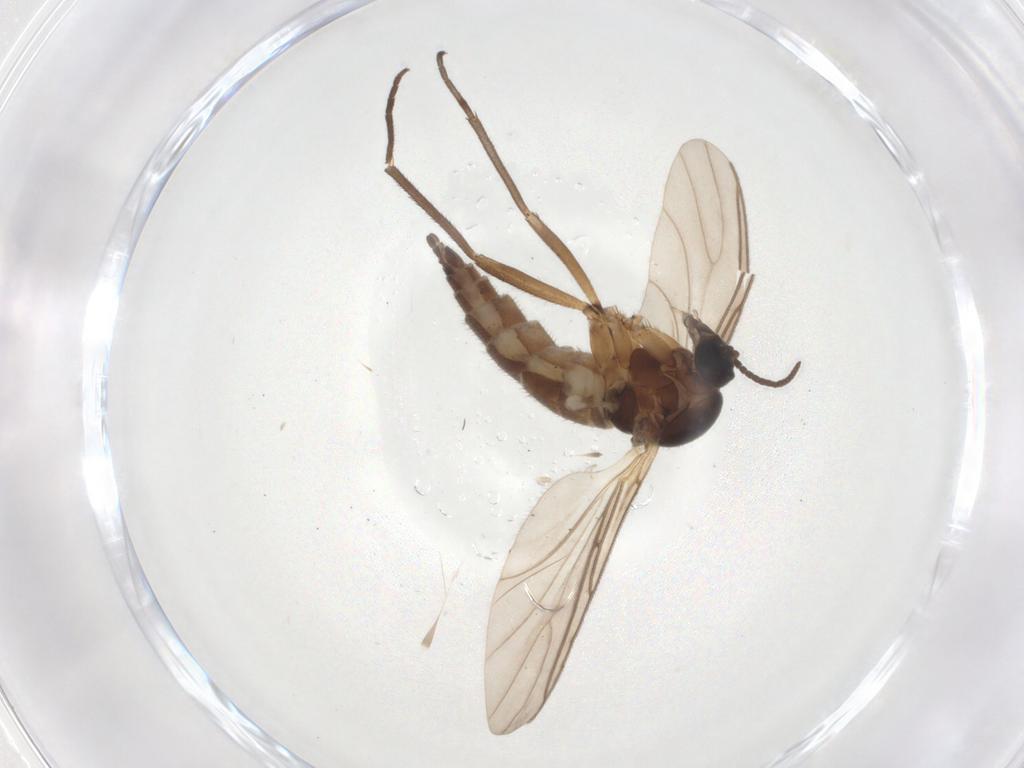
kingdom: Animalia
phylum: Arthropoda
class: Insecta
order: Diptera
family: Sciaridae
